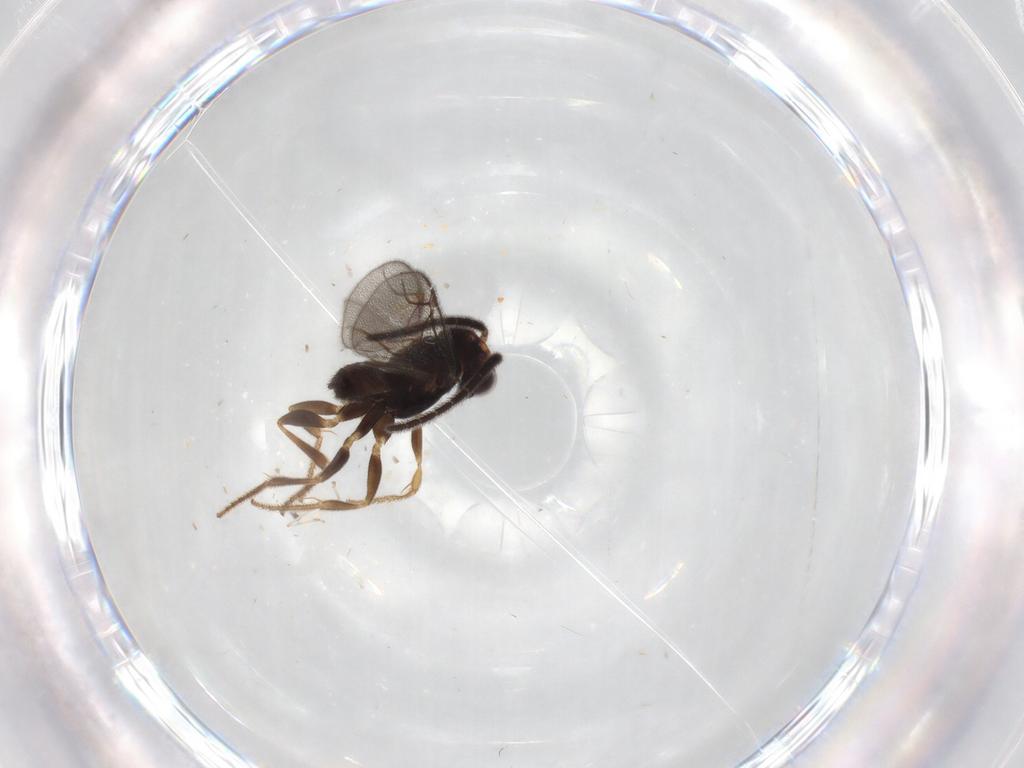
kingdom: Animalia
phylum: Arthropoda
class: Insecta
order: Hymenoptera
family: Dryinidae
